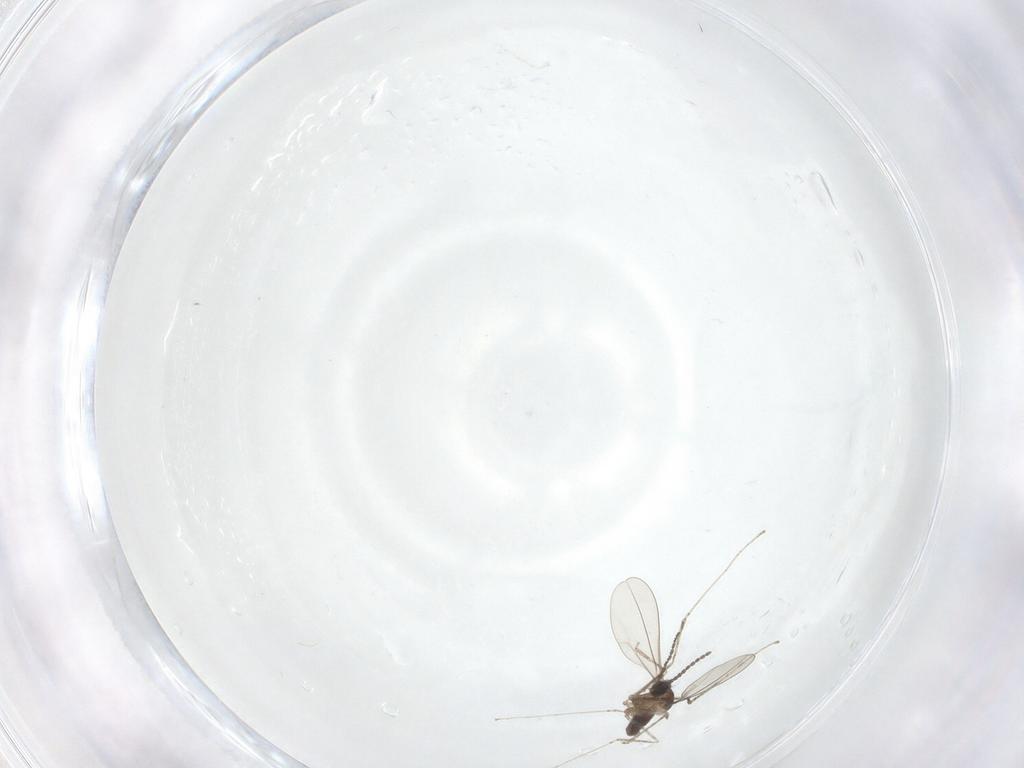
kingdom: Animalia
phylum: Arthropoda
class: Insecta
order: Diptera
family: Cecidomyiidae
